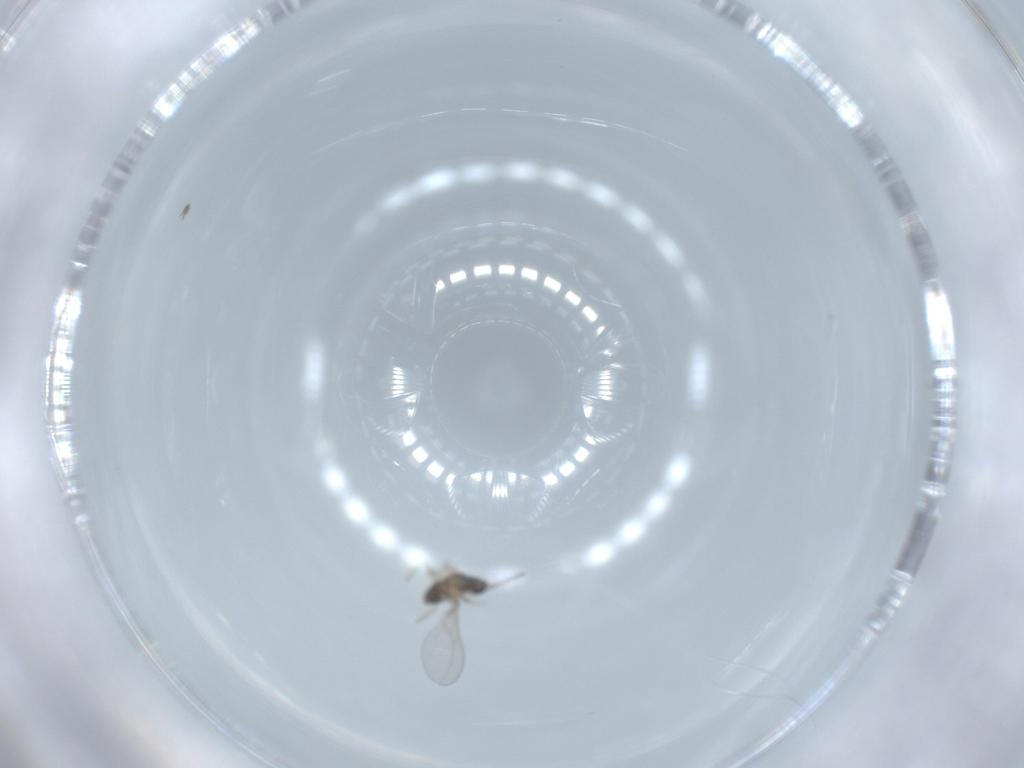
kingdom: Animalia
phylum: Arthropoda
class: Insecta
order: Diptera
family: Cecidomyiidae
